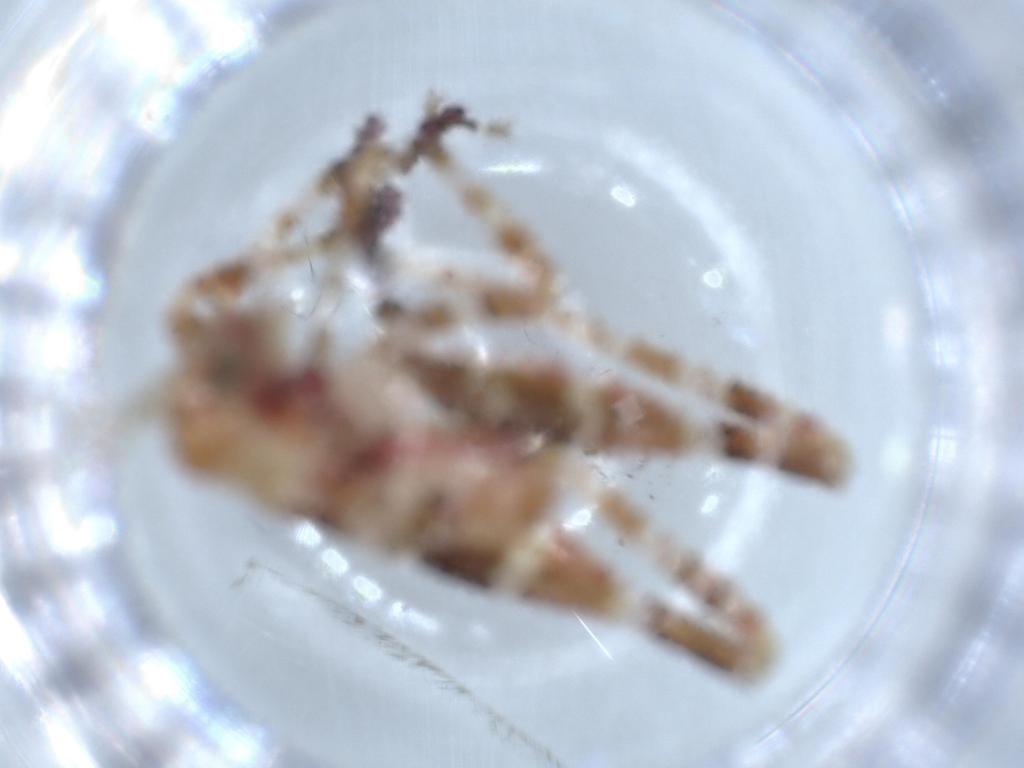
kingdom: Animalia
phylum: Arthropoda
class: Insecta
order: Orthoptera
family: Tettigoniidae
